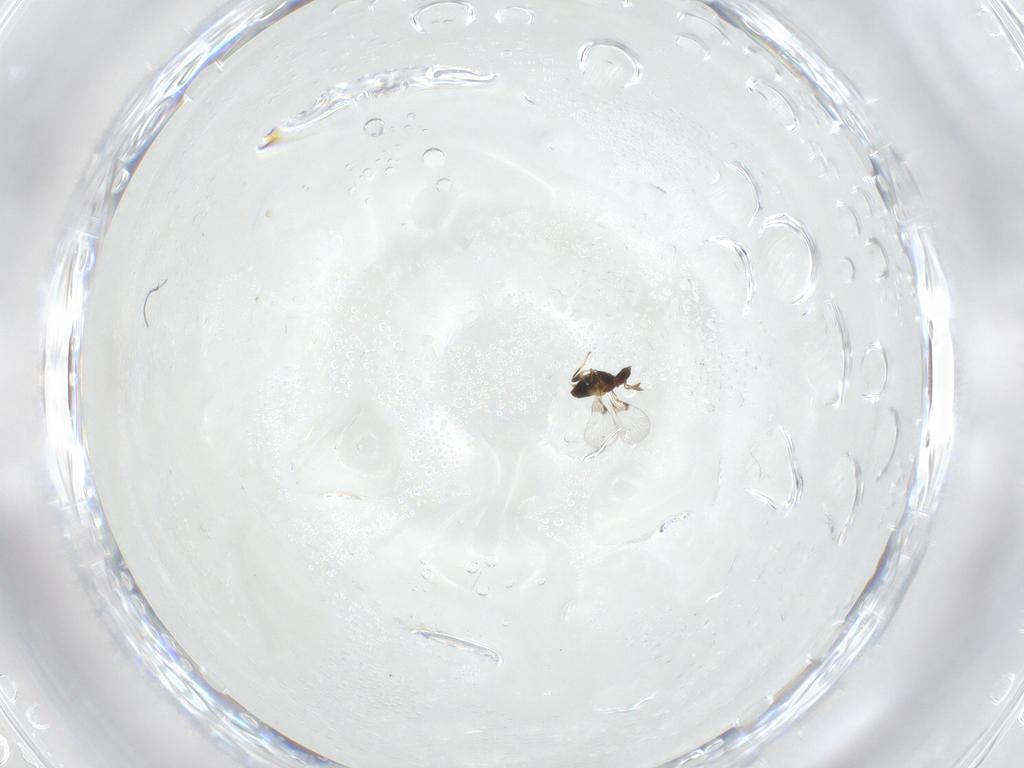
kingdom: Animalia
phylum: Arthropoda
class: Insecta
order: Hymenoptera
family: Trichogrammatidae
